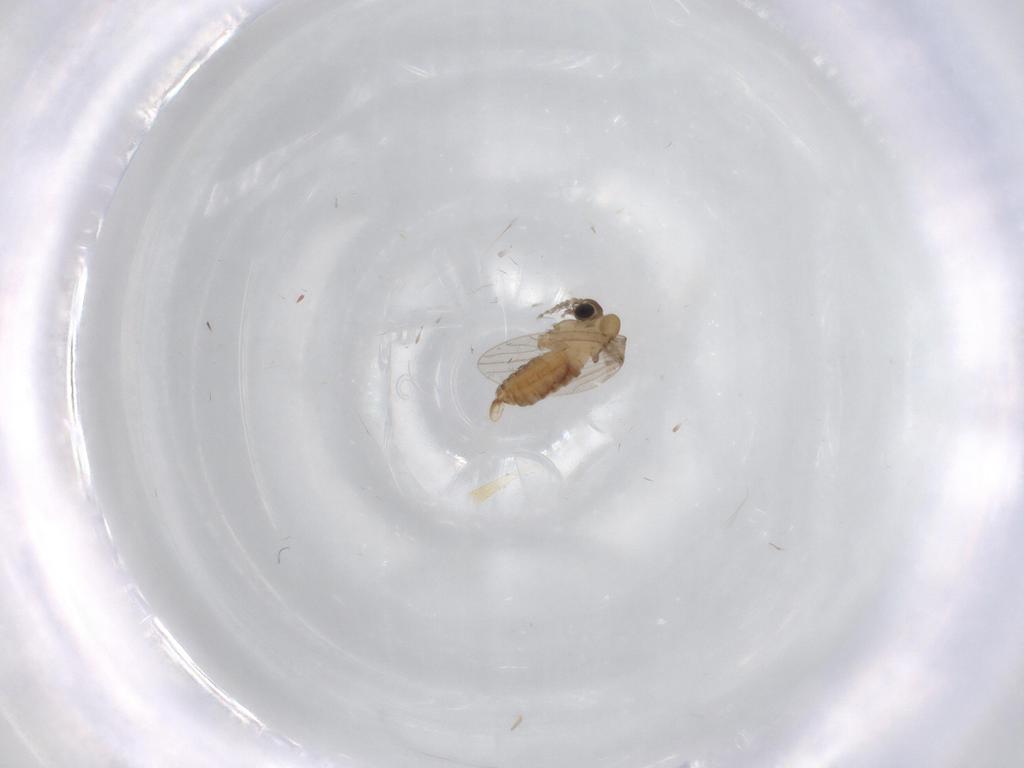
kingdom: Animalia
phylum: Arthropoda
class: Insecta
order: Diptera
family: Psychodidae
